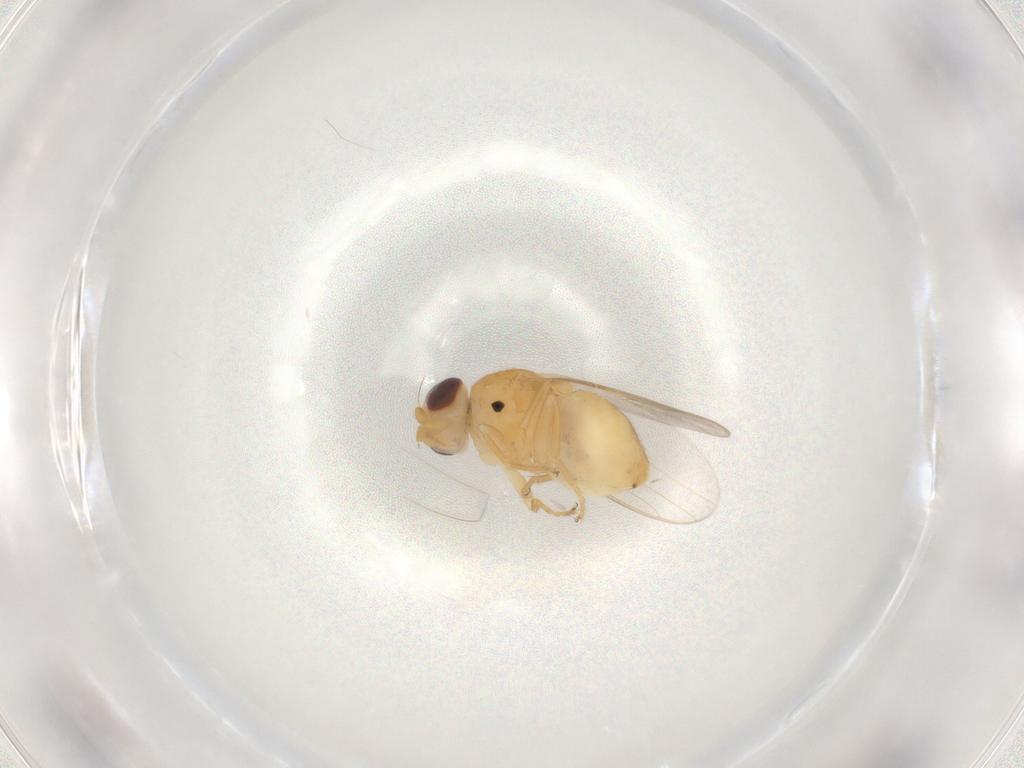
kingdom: Animalia
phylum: Arthropoda
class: Insecta
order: Diptera
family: Chloropidae
